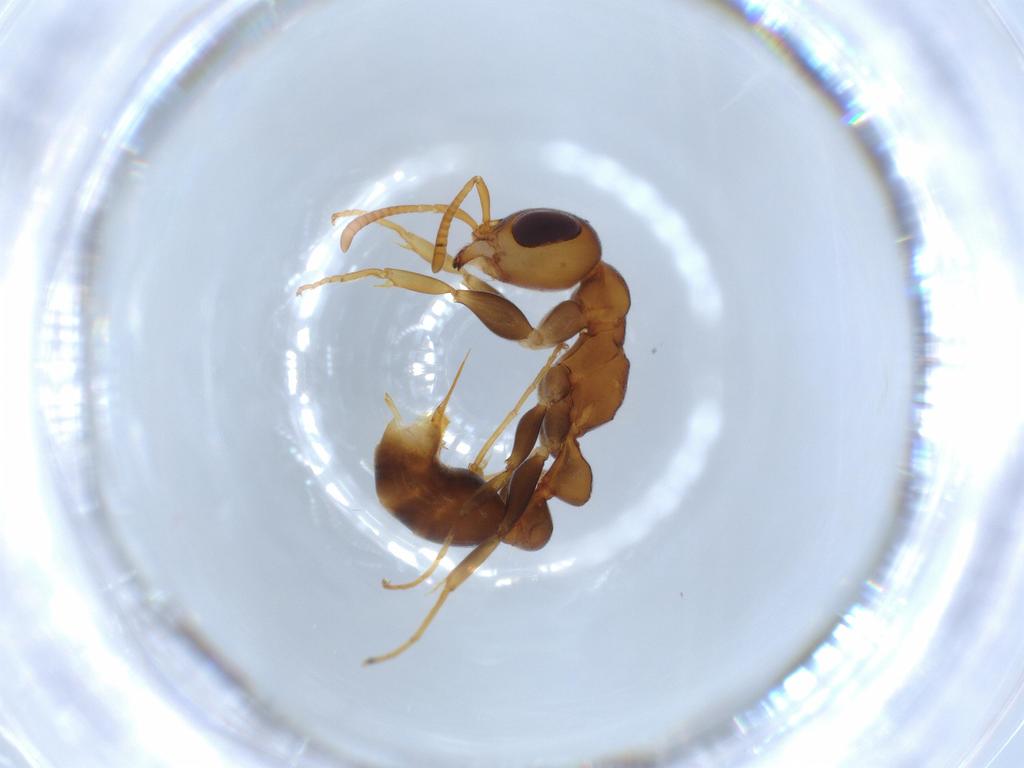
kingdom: Animalia
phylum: Arthropoda
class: Insecta
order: Hymenoptera
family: Formicidae
